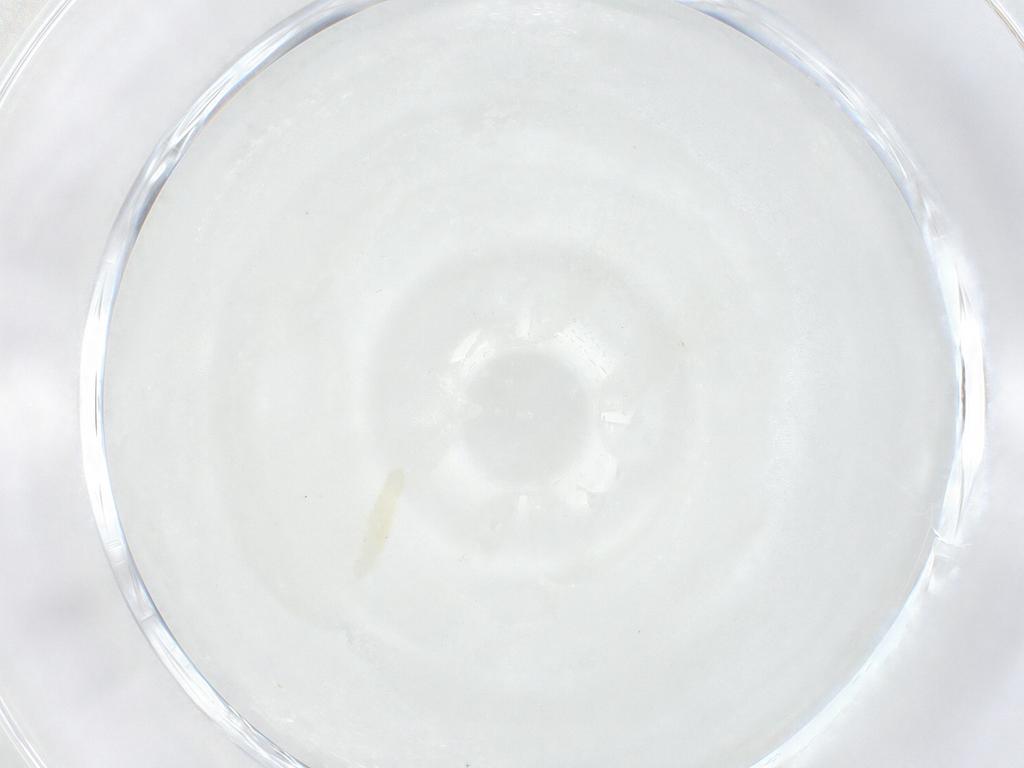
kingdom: Animalia
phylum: Arthropoda
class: Collembola
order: Poduromorpha
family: Onychiuridae
